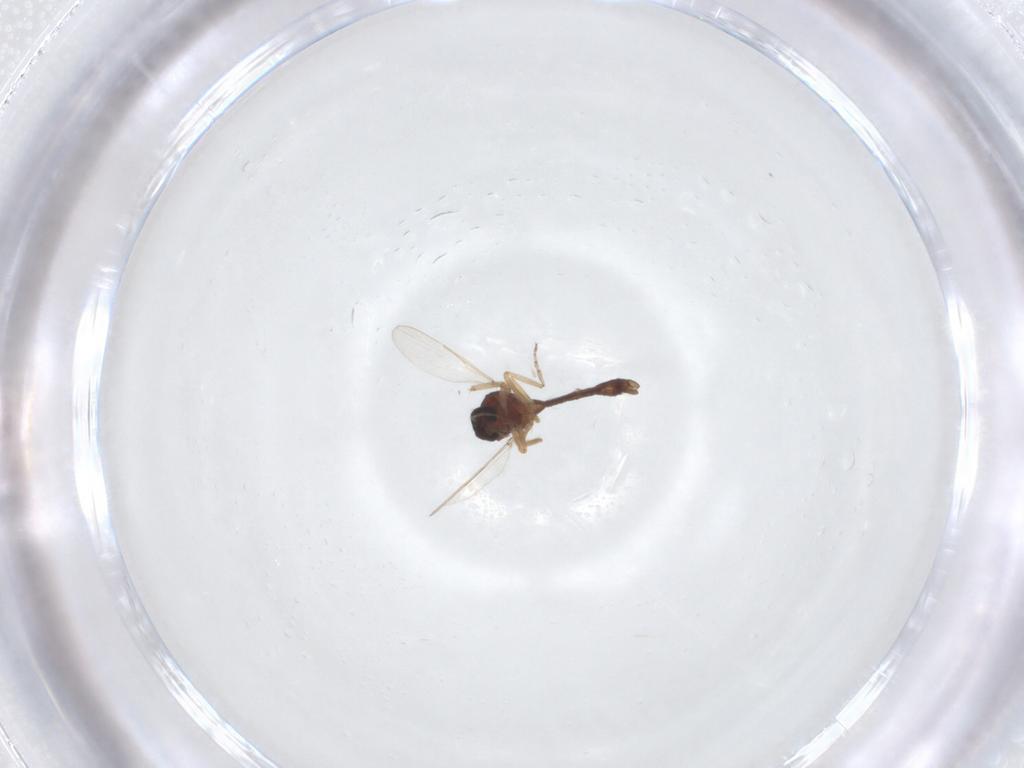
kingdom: Animalia
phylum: Arthropoda
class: Insecta
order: Diptera
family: Ceratopogonidae
